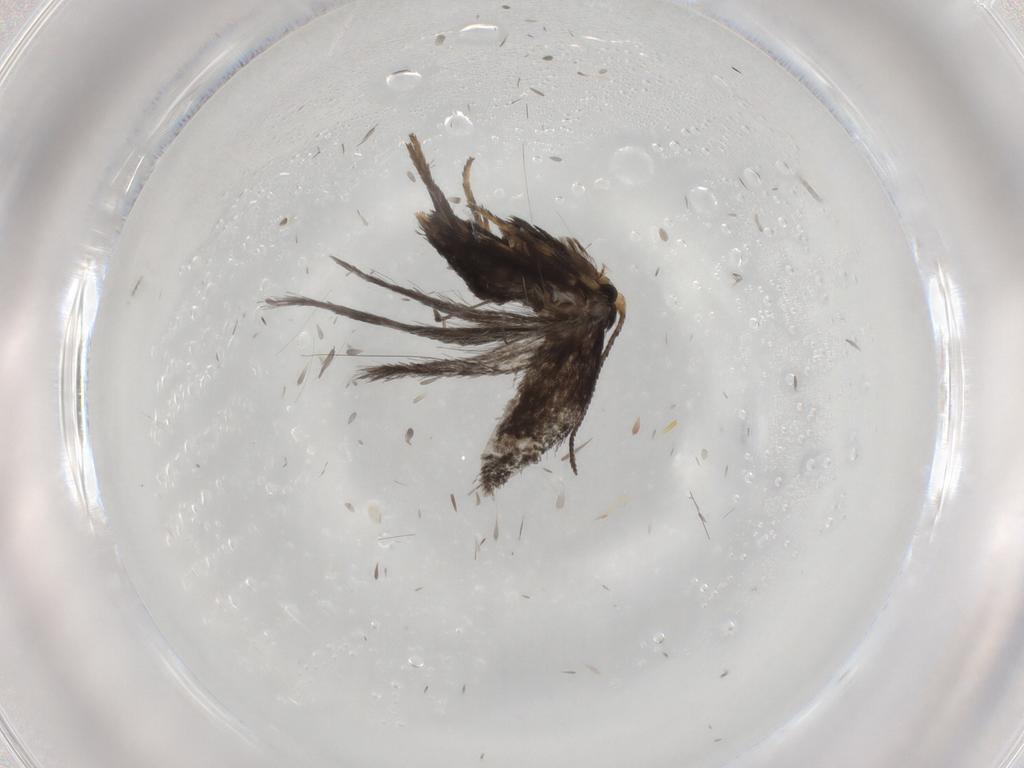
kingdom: Animalia
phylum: Arthropoda
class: Insecta
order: Lepidoptera
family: Nepticulidae
